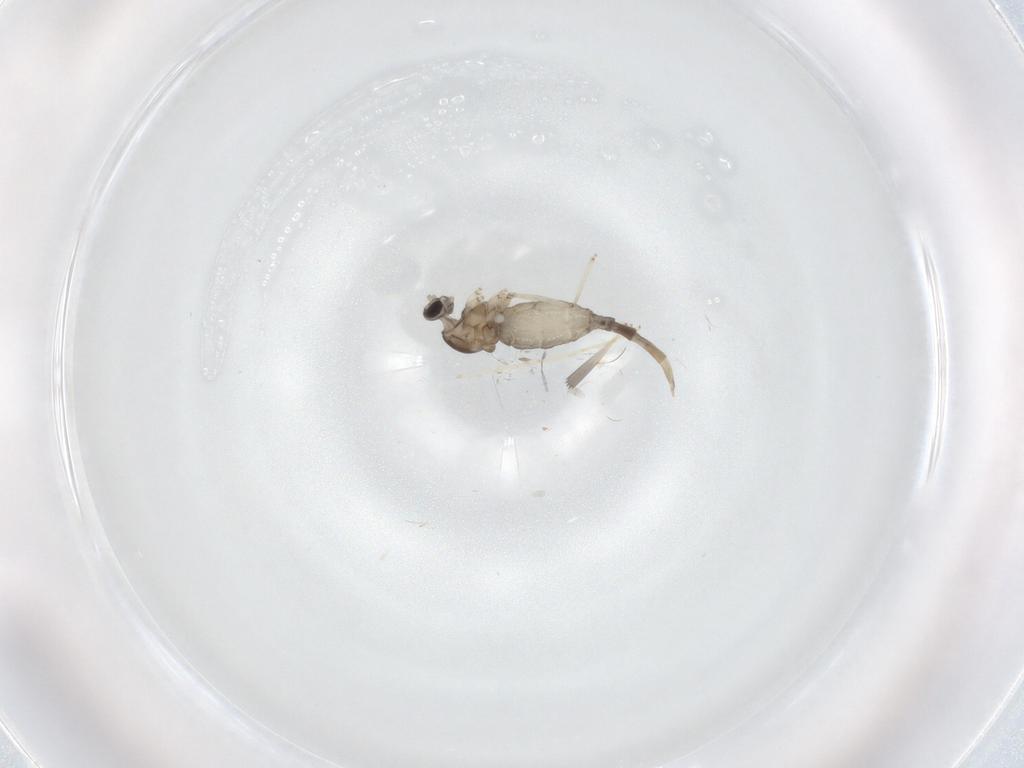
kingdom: Animalia
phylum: Arthropoda
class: Insecta
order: Diptera
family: Cecidomyiidae
